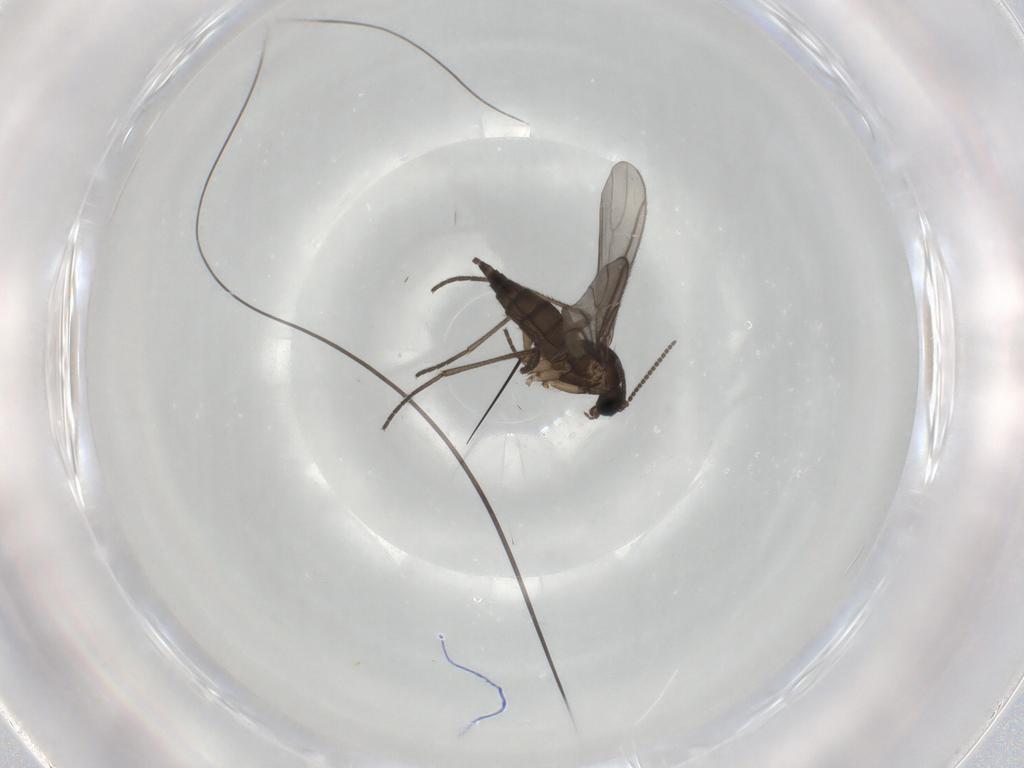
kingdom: Animalia
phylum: Arthropoda
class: Insecta
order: Diptera
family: Sciaridae
